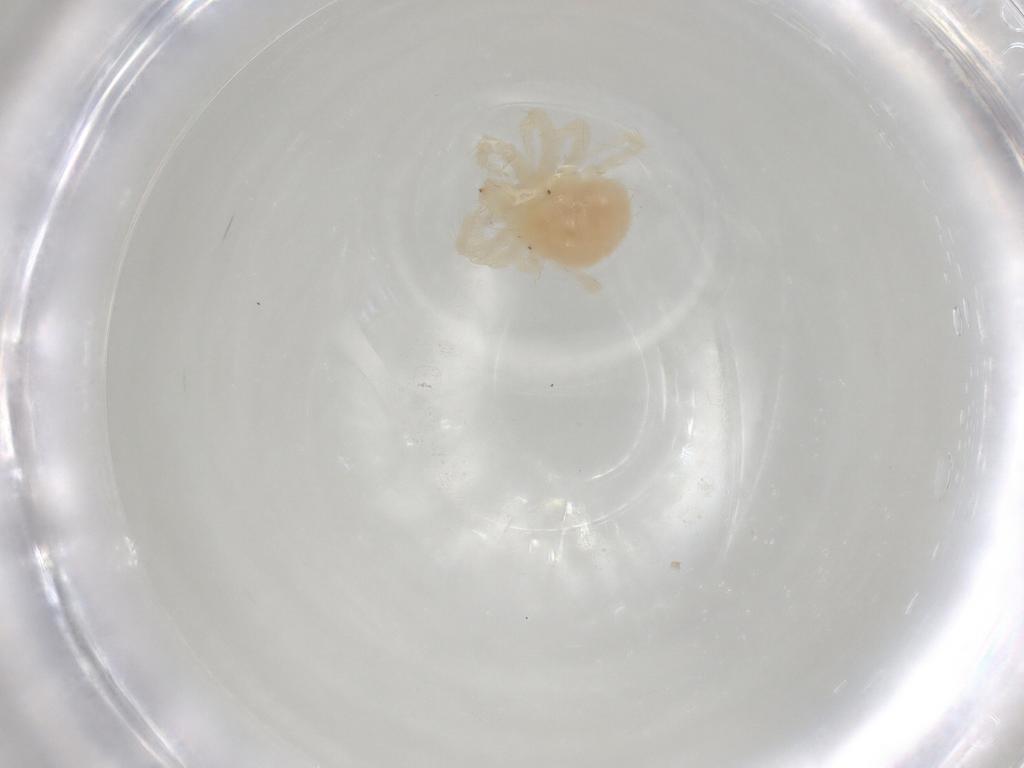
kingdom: Animalia
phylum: Arthropoda
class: Arachnida
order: Trombidiformes
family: Anystidae
